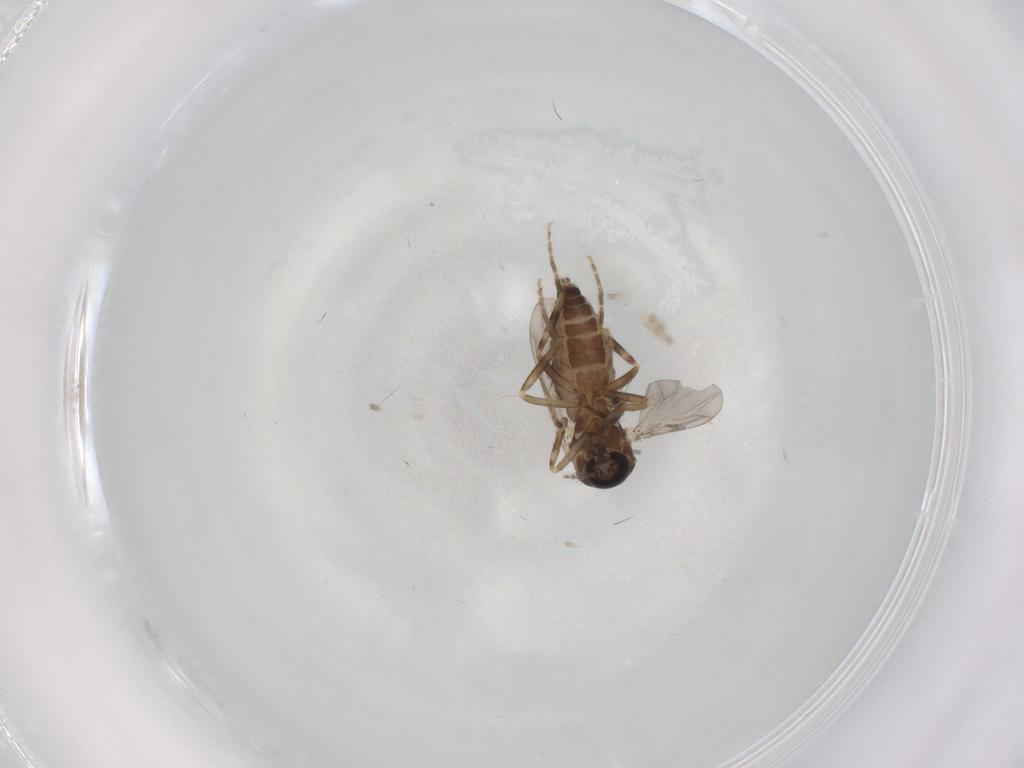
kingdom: Animalia
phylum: Arthropoda
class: Insecta
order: Diptera
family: Ceratopogonidae
